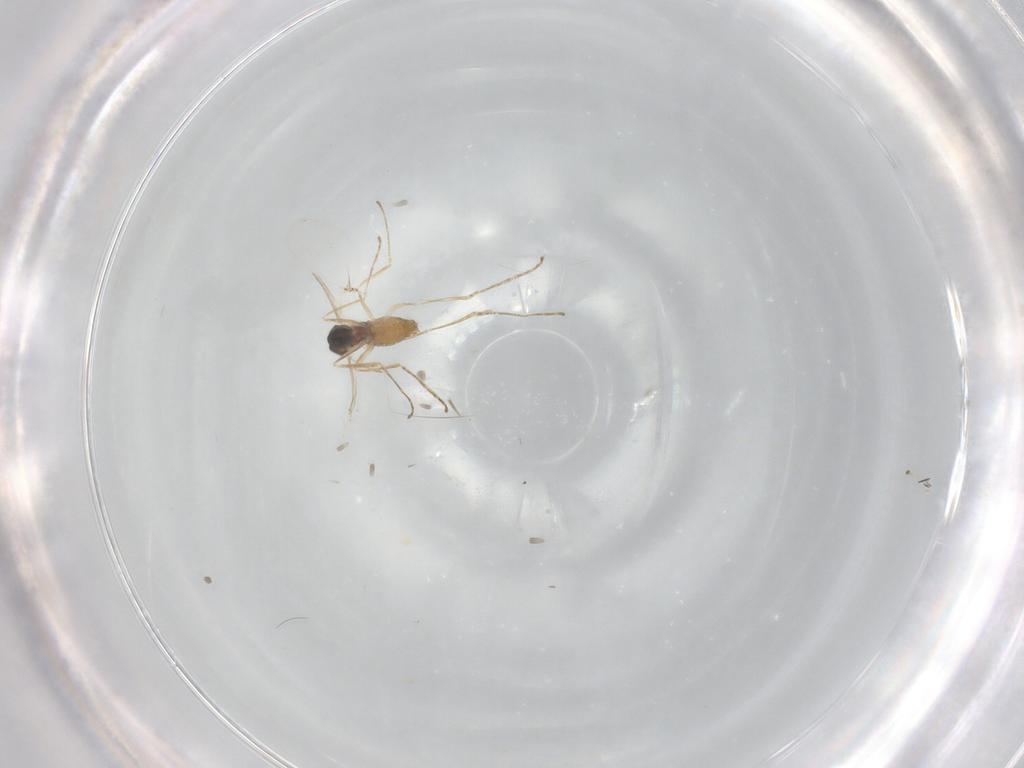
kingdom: Animalia
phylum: Arthropoda
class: Insecta
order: Diptera
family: Cecidomyiidae
